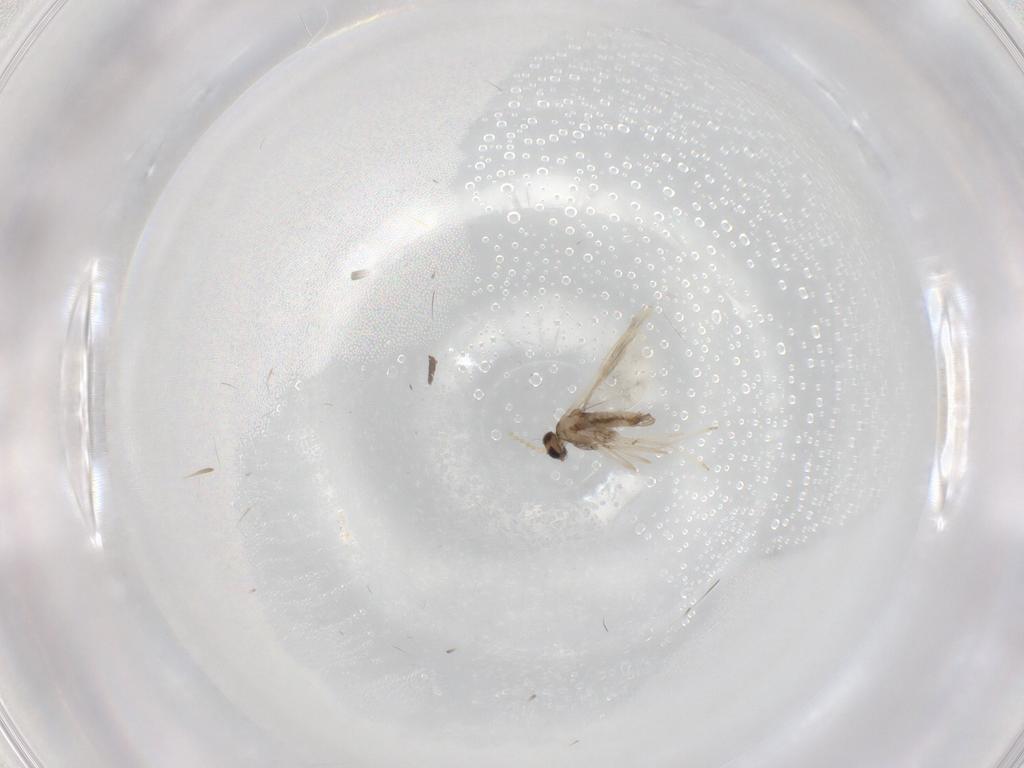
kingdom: Animalia
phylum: Arthropoda
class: Insecta
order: Diptera
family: Cecidomyiidae
